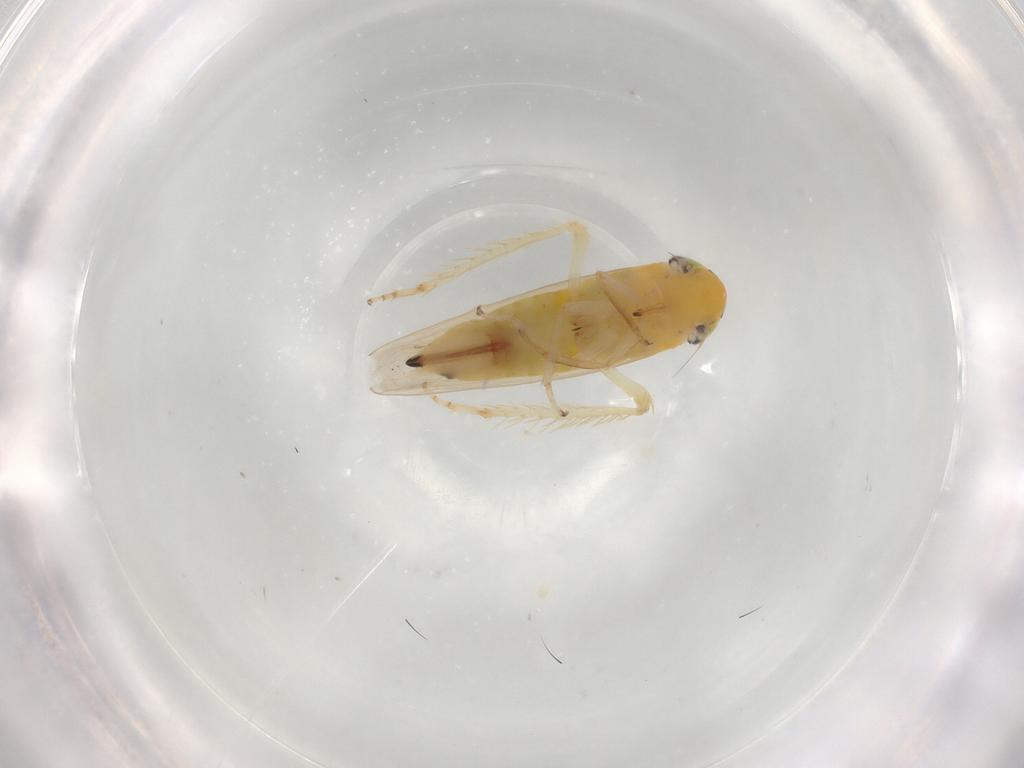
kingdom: Animalia
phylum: Arthropoda
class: Insecta
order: Hemiptera
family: Cicadellidae
